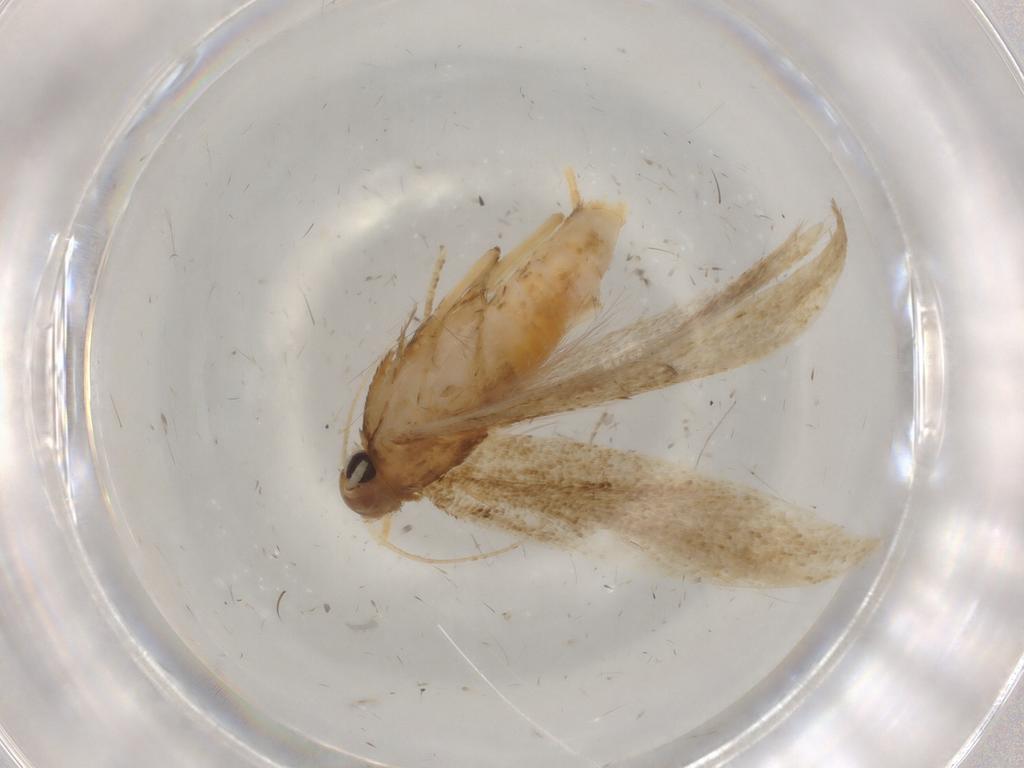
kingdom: Animalia
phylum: Arthropoda
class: Insecta
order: Lepidoptera
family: Gelechiidae
